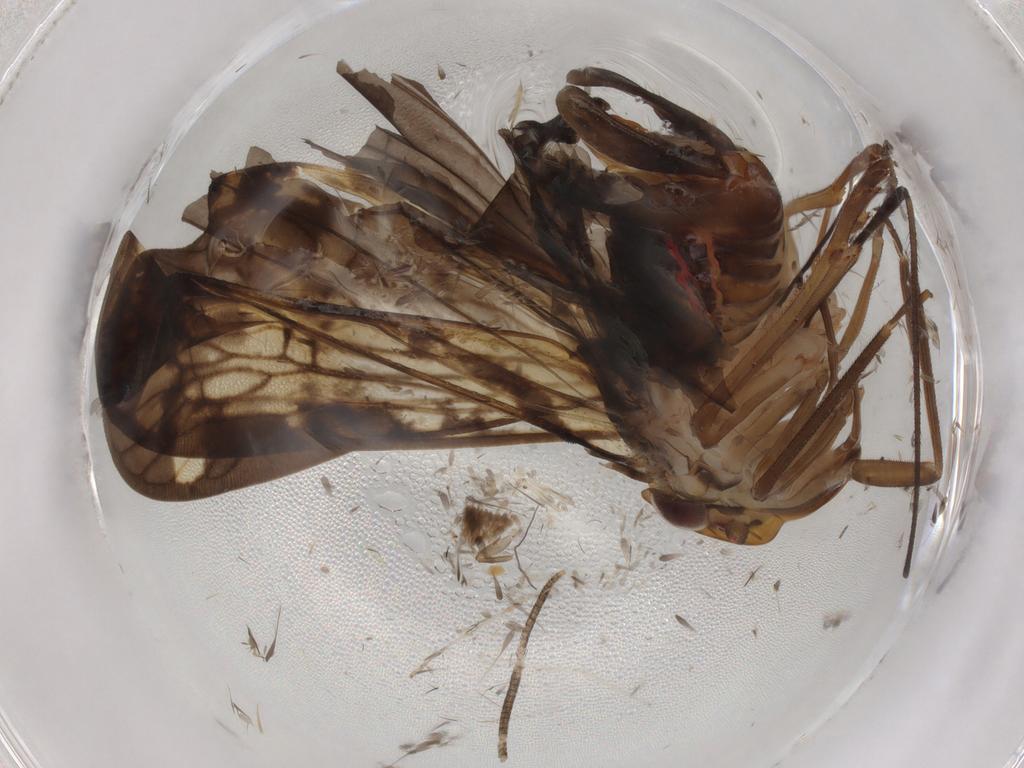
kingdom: Animalia
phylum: Arthropoda
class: Insecta
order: Hemiptera
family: Cixiidae
